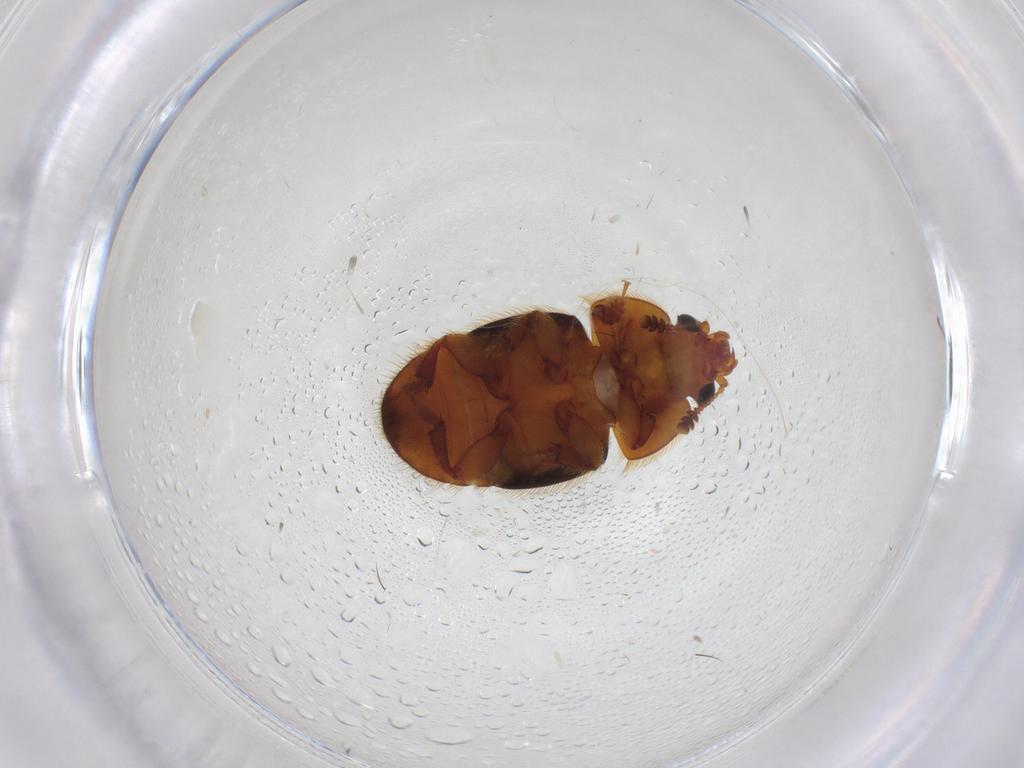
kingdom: Animalia
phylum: Arthropoda
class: Insecta
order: Coleoptera
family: Nitidulidae
